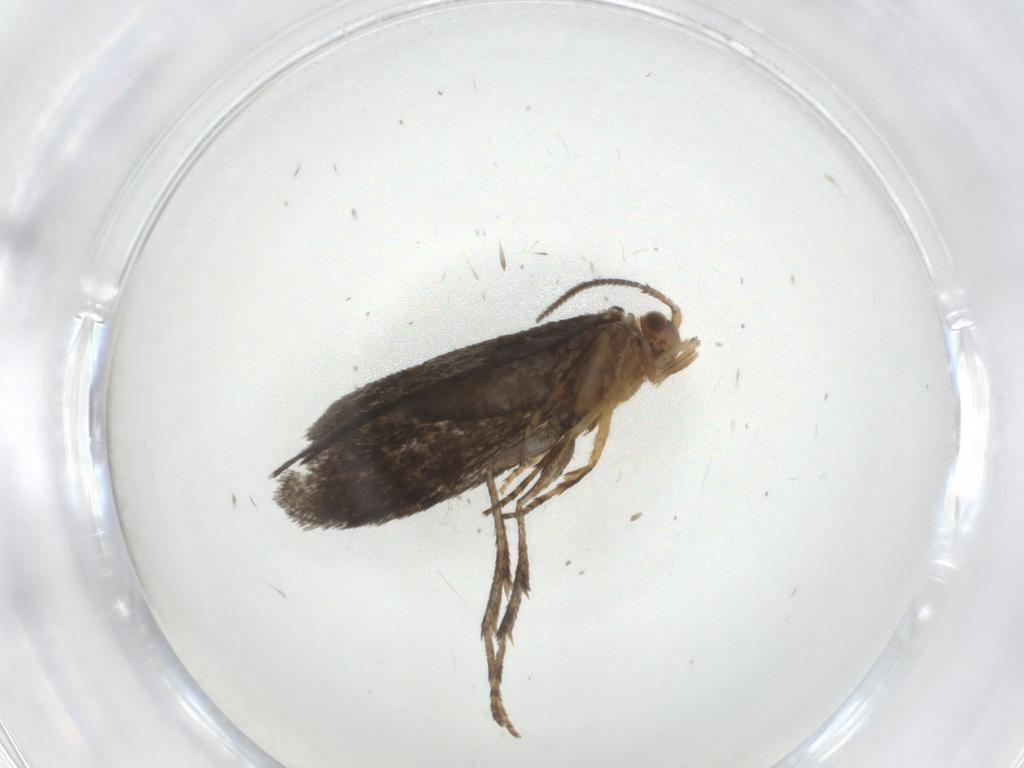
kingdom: Animalia
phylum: Arthropoda
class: Insecta
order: Lepidoptera
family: Micropterigidae
